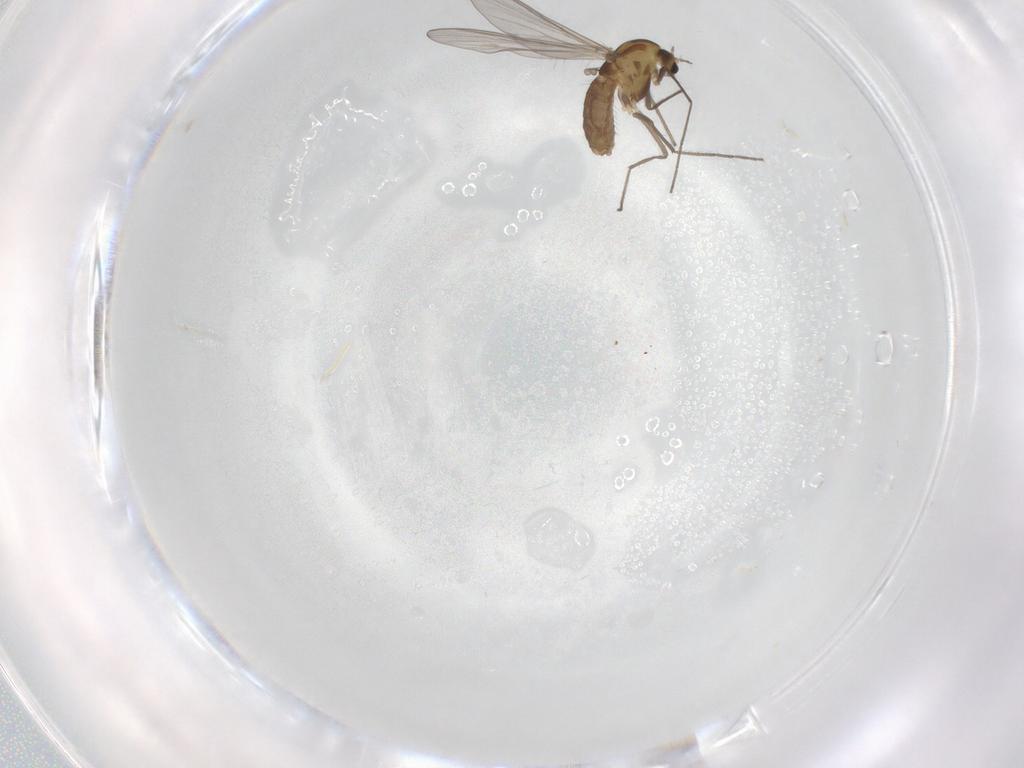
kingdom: Animalia
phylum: Arthropoda
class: Insecta
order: Diptera
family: Chironomidae
